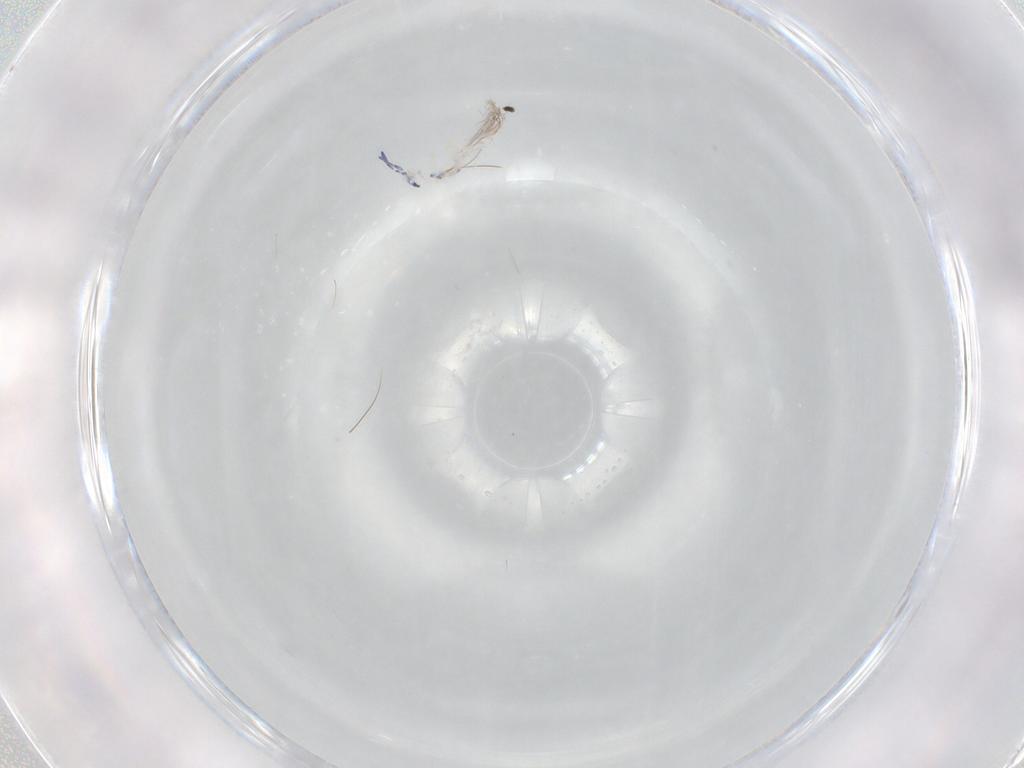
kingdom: Animalia
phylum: Arthropoda
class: Collembola
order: Entomobryomorpha
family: Entomobryidae
